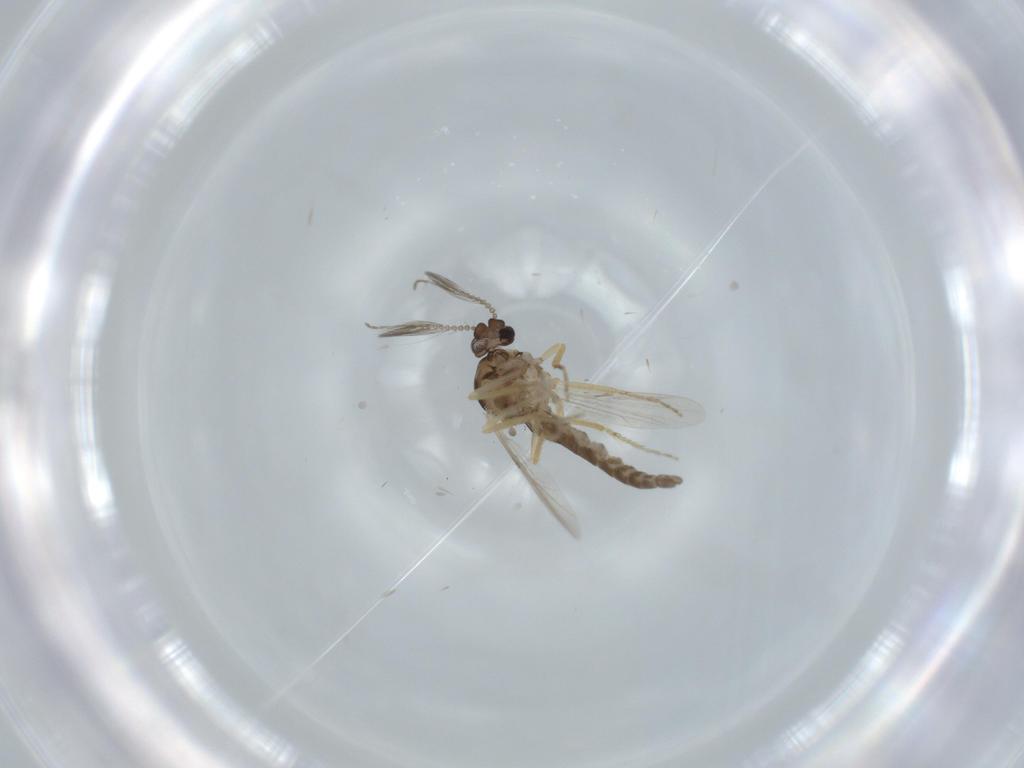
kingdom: Animalia
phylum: Arthropoda
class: Insecta
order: Diptera
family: Ceratopogonidae
